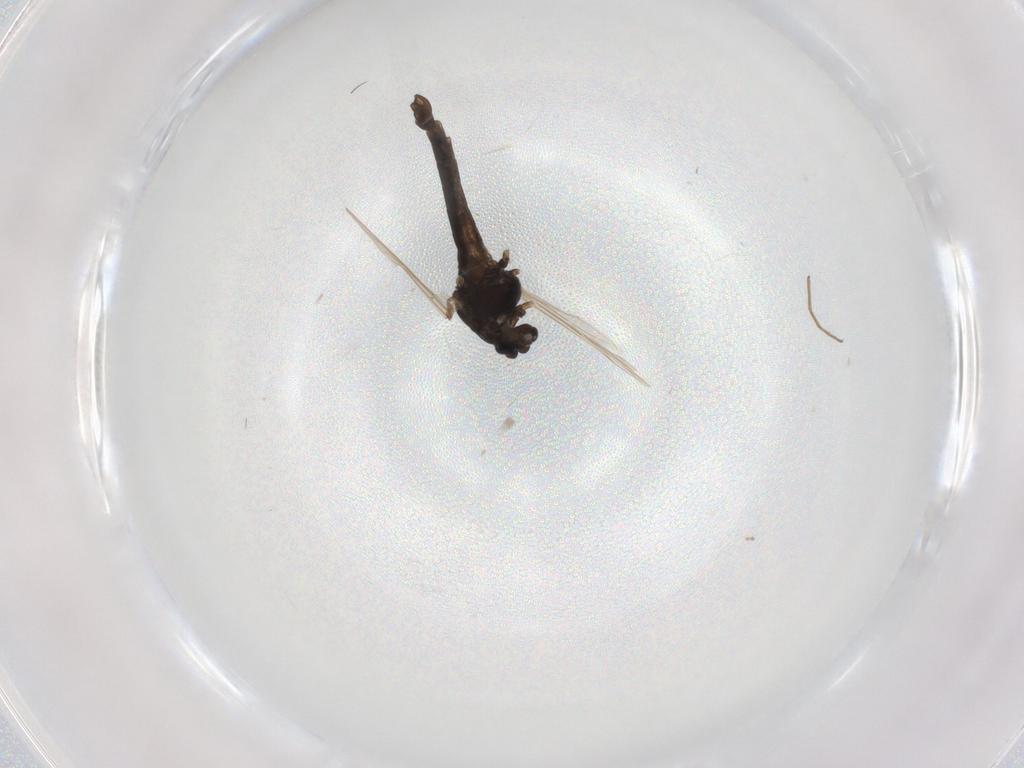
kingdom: Animalia
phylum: Arthropoda
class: Insecta
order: Diptera
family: Chironomidae
